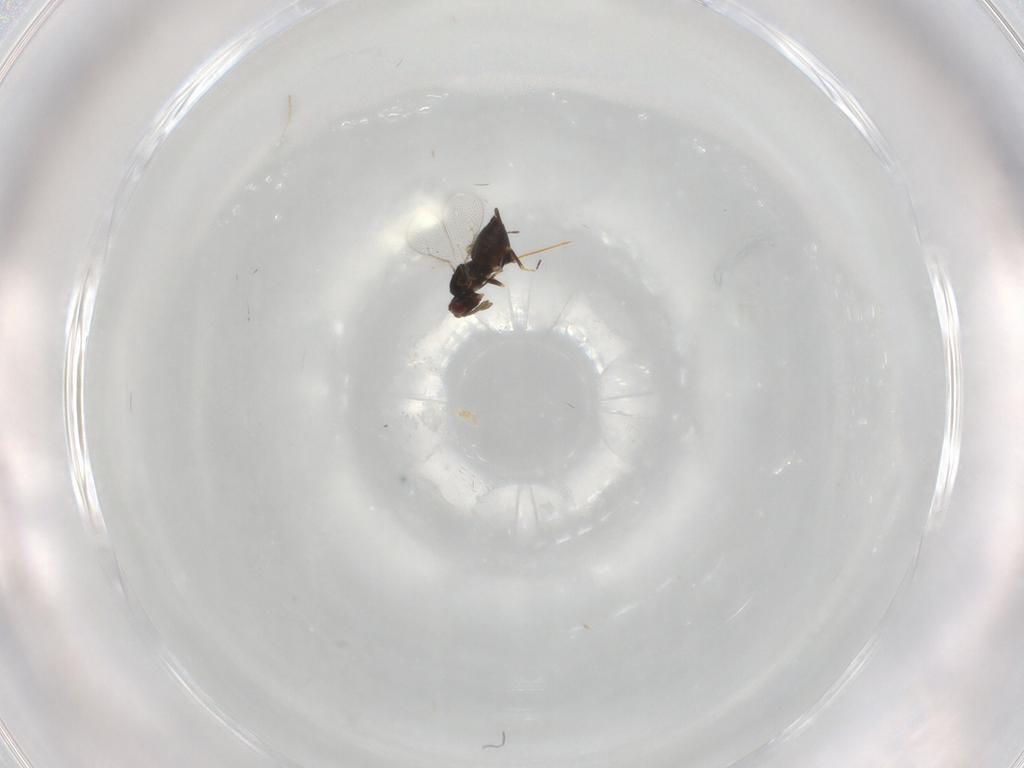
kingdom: Animalia
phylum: Arthropoda
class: Insecta
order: Hymenoptera
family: Eulophidae
